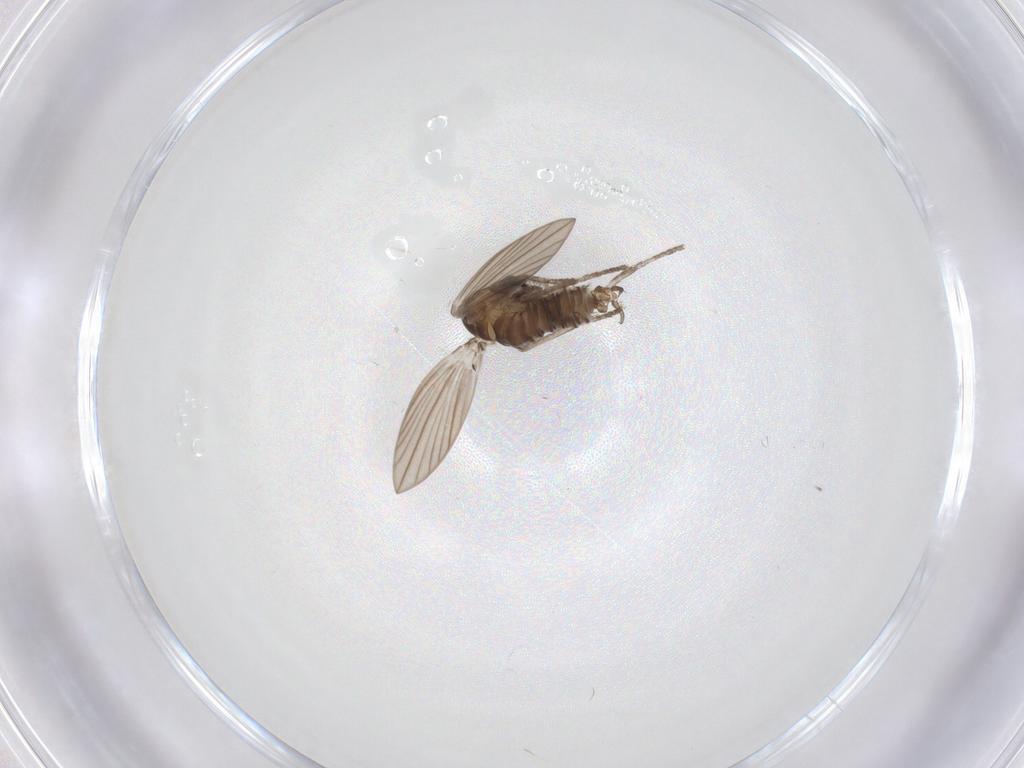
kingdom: Animalia
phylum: Arthropoda
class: Insecta
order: Diptera
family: Psychodidae
